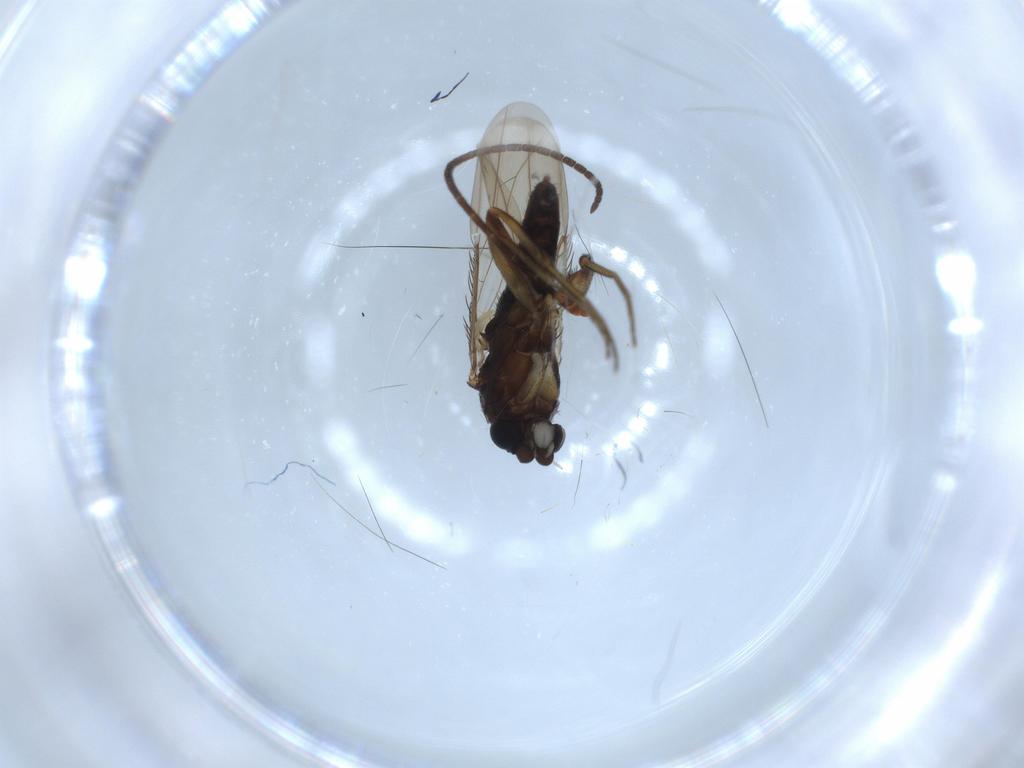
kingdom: Animalia
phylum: Arthropoda
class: Insecta
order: Diptera
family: Phoridae
